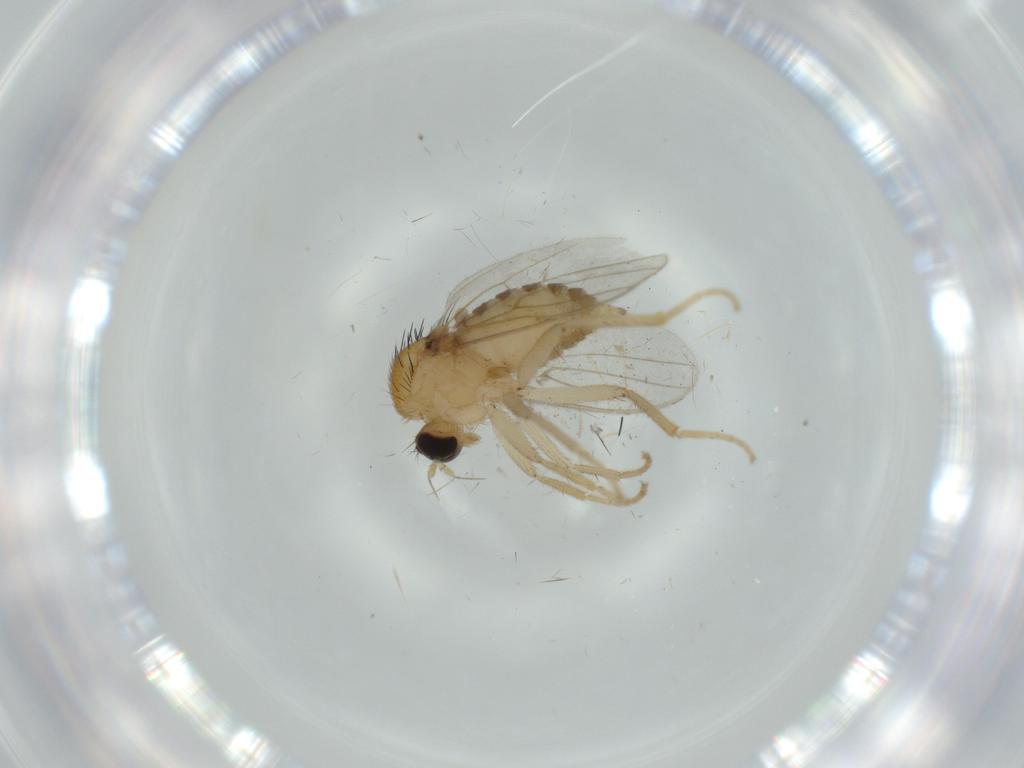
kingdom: Animalia
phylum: Arthropoda
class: Insecta
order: Diptera
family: Hybotidae
